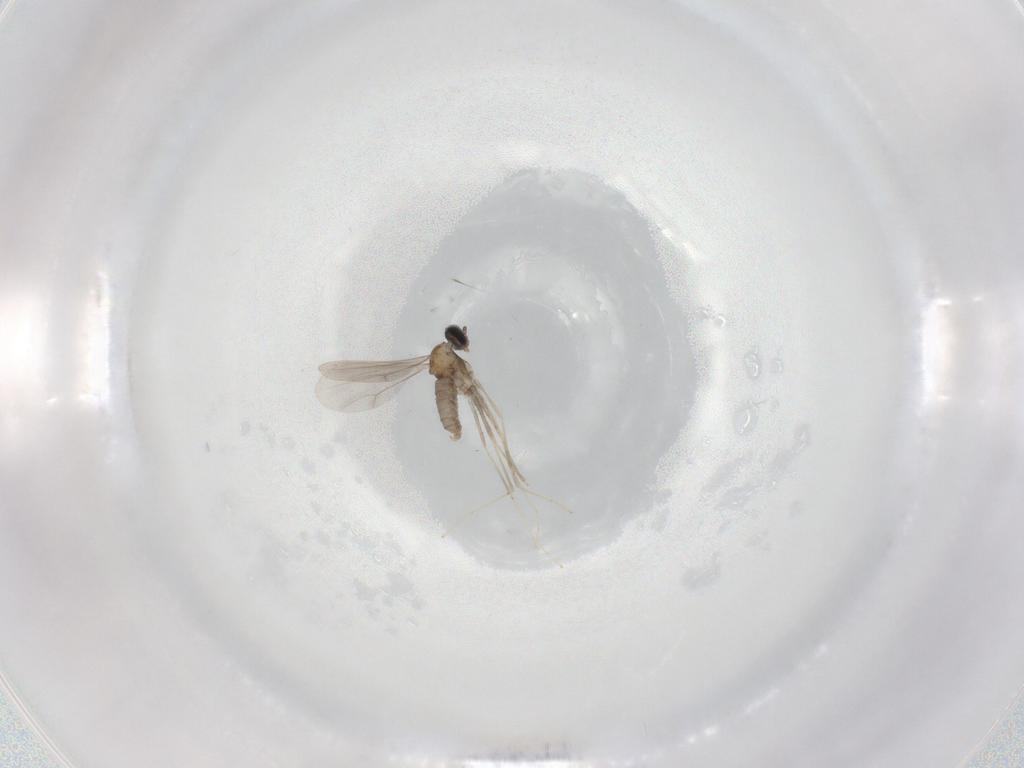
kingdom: Animalia
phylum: Arthropoda
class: Insecta
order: Diptera
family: Cecidomyiidae
